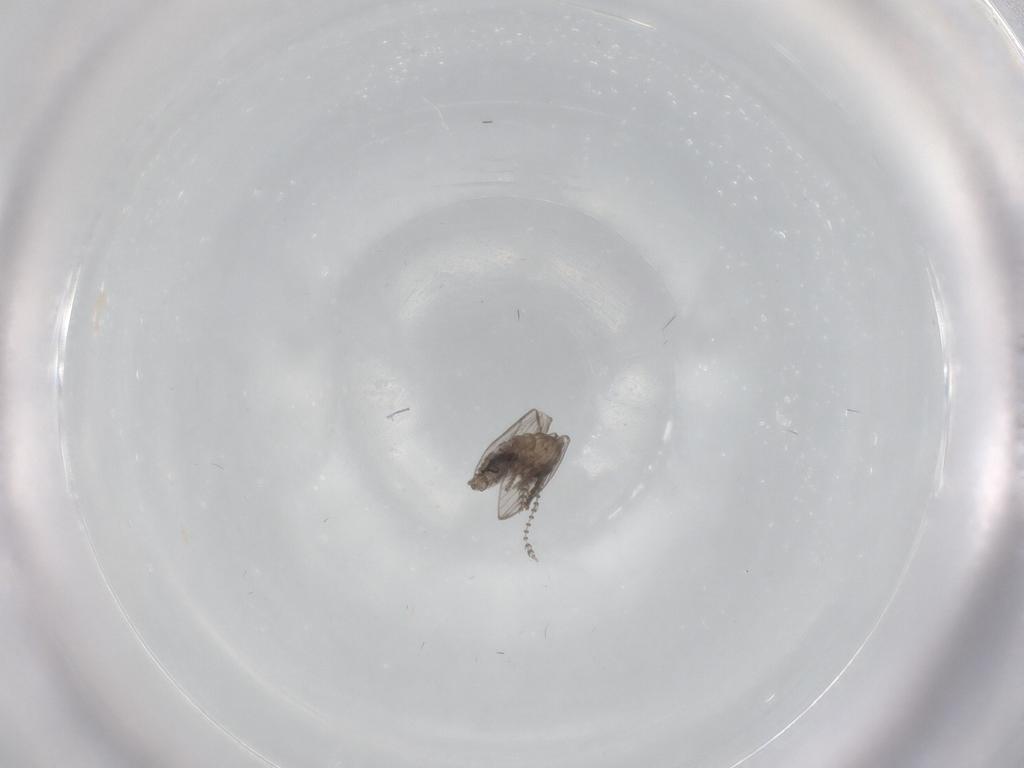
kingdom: Animalia
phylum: Arthropoda
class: Insecta
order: Diptera
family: Psychodidae
